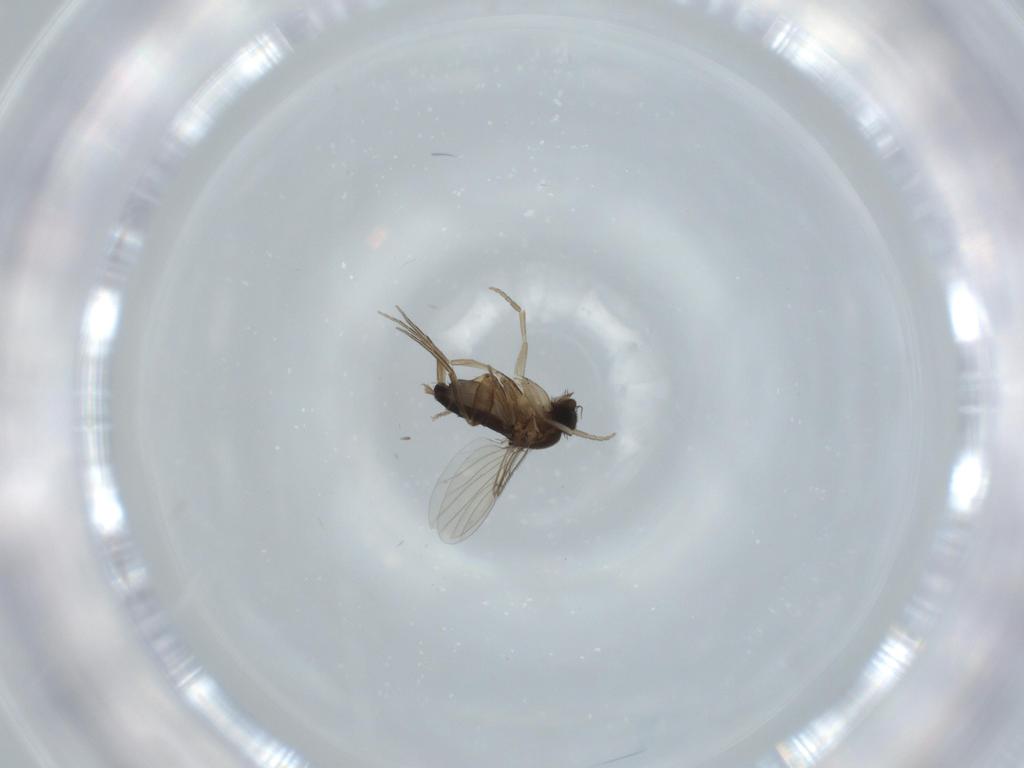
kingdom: Animalia
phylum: Arthropoda
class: Insecta
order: Diptera
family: Phoridae
